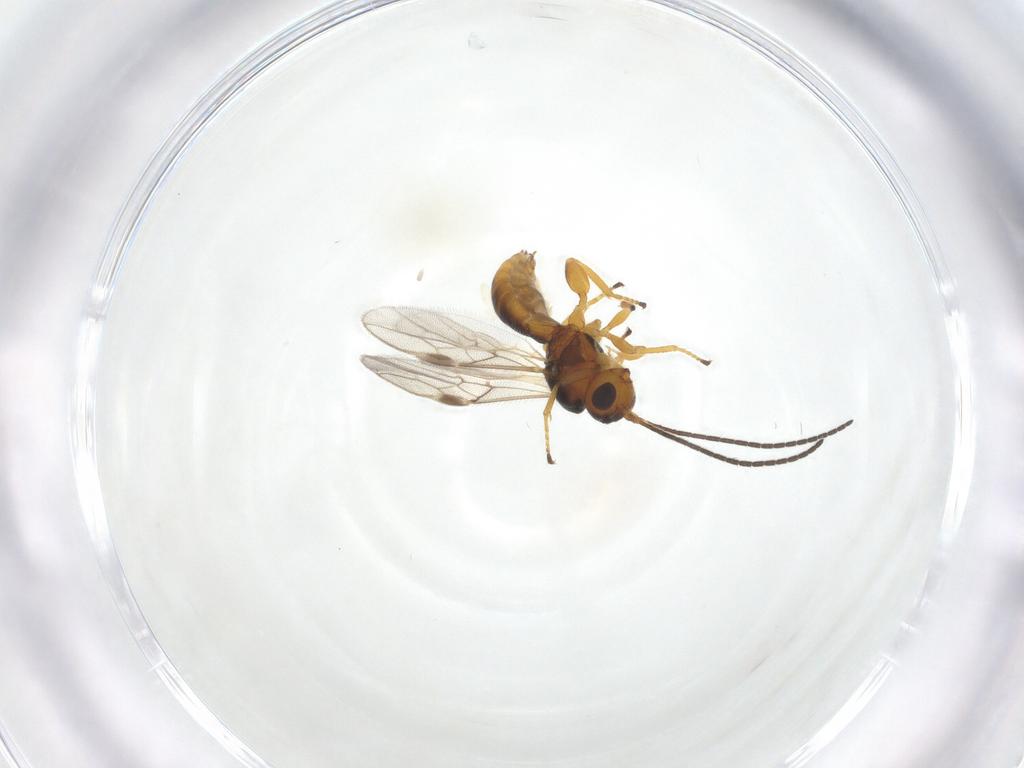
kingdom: Animalia
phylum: Arthropoda
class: Insecta
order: Hymenoptera
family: Braconidae
